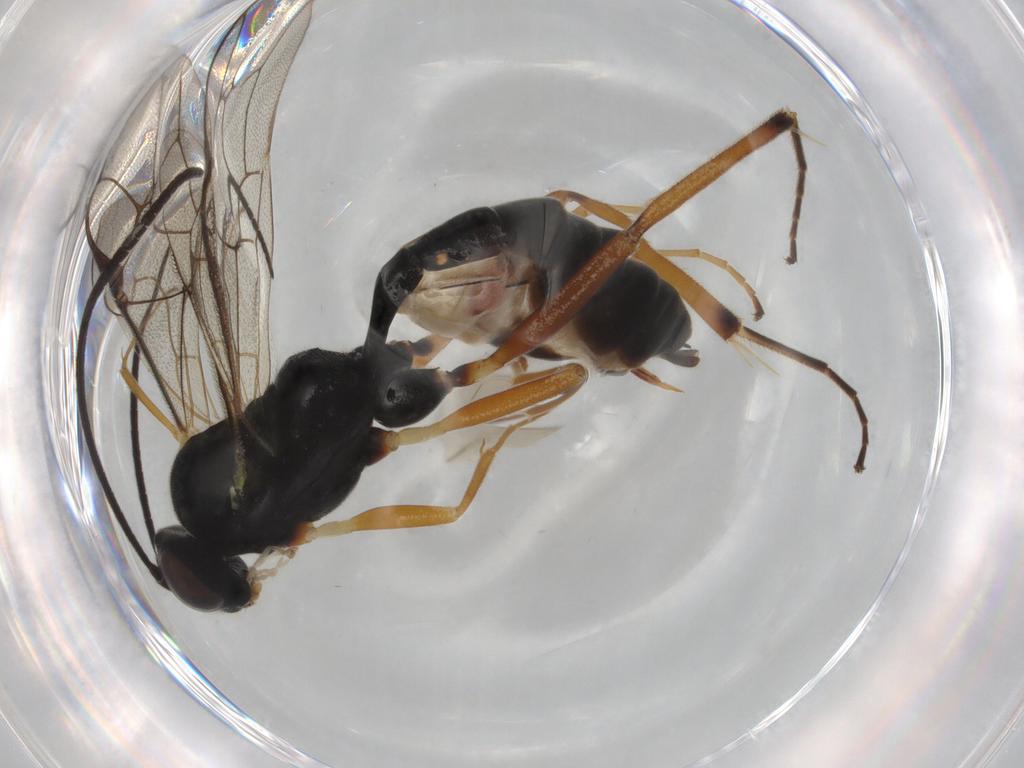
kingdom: Animalia
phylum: Arthropoda
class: Insecta
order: Hymenoptera
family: Ichneumonidae
